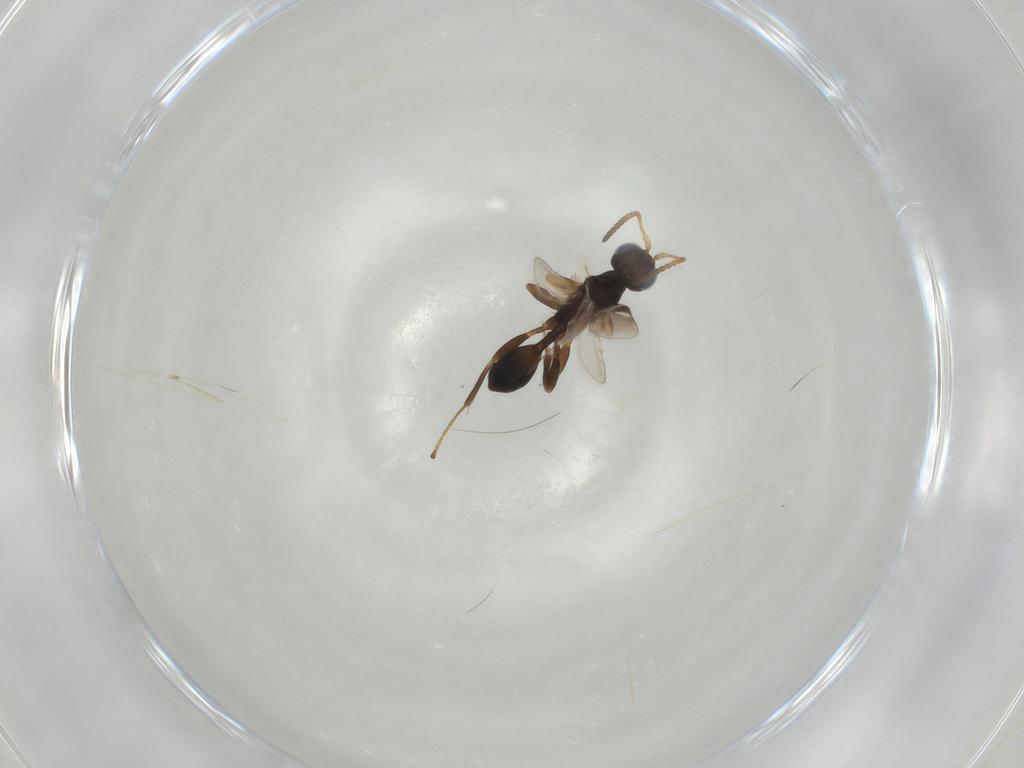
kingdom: Animalia
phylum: Arthropoda
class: Insecta
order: Hymenoptera
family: Braconidae
